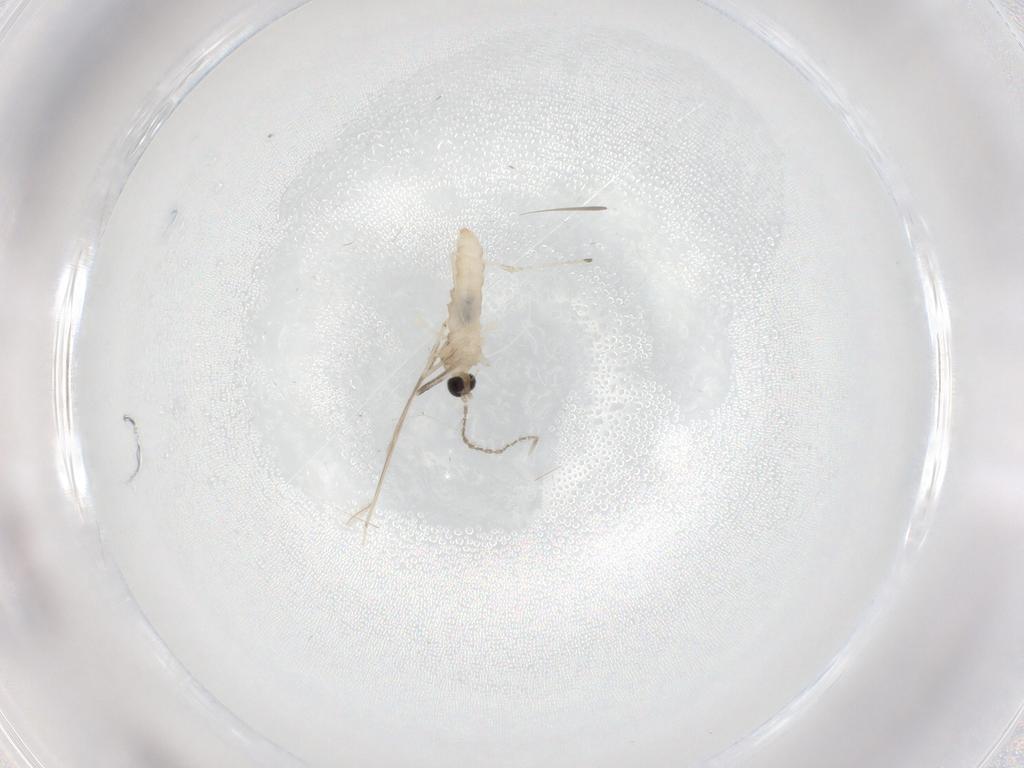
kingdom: Animalia
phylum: Arthropoda
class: Insecta
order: Diptera
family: Cecidomyiidae
